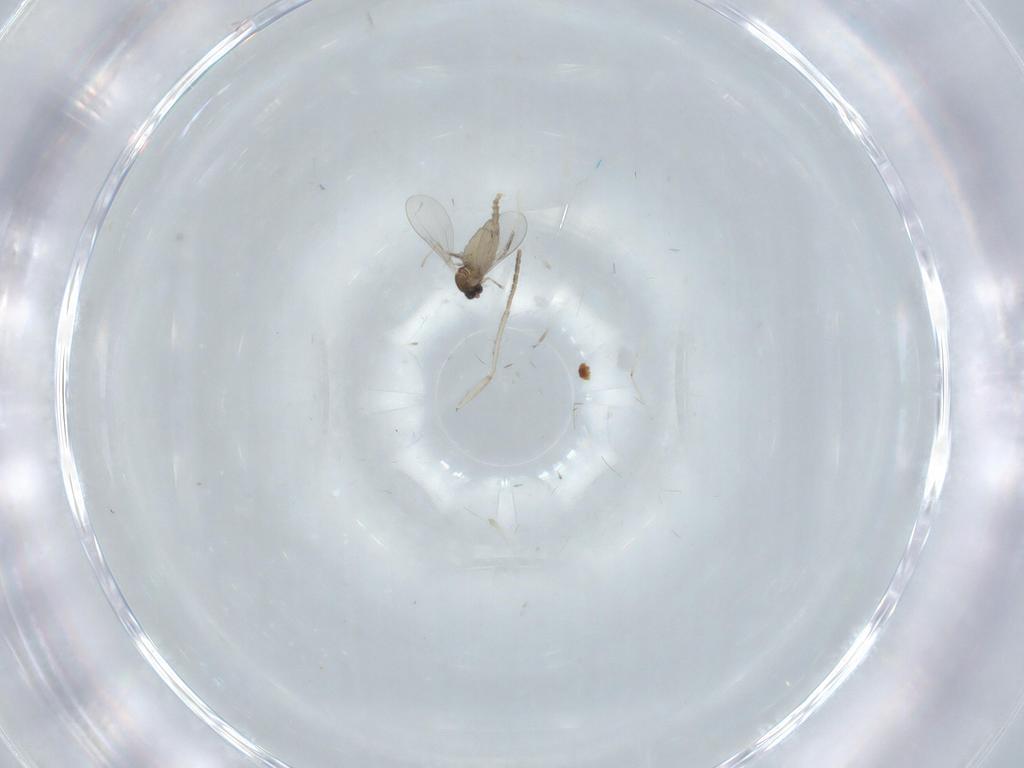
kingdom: Animalia
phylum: Arthropoda
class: Insecta
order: Diptera
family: Cecidomyiidae
